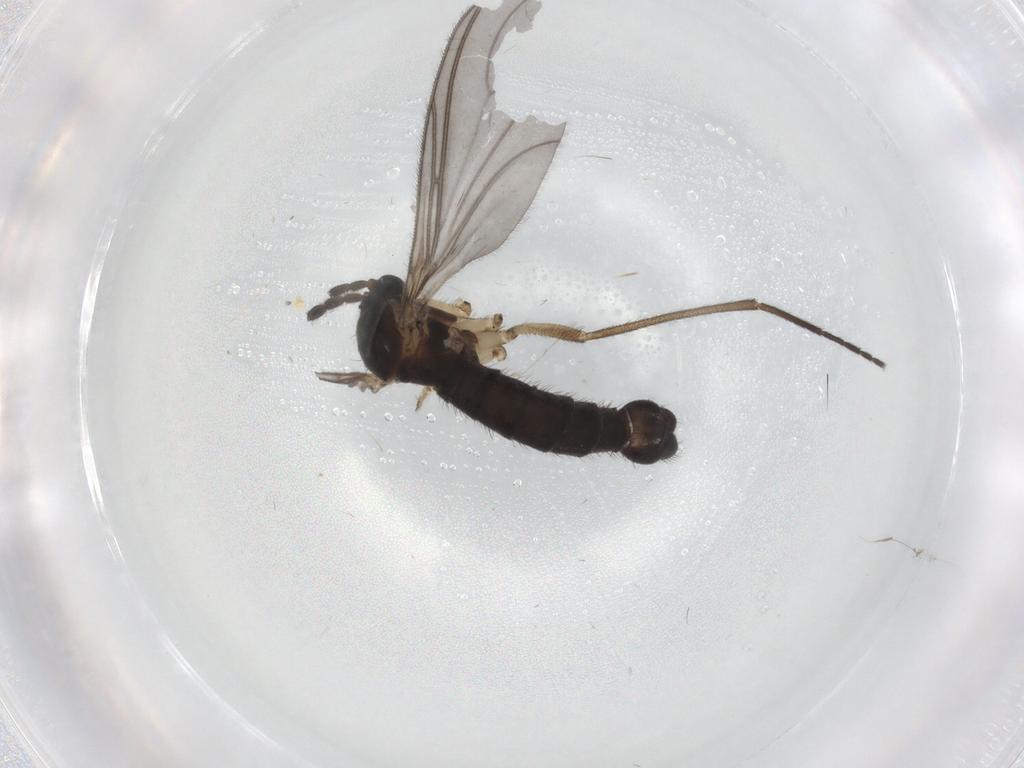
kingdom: Animalia
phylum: Arthropoda
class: Insecta
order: Diptera
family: Sciaridae
